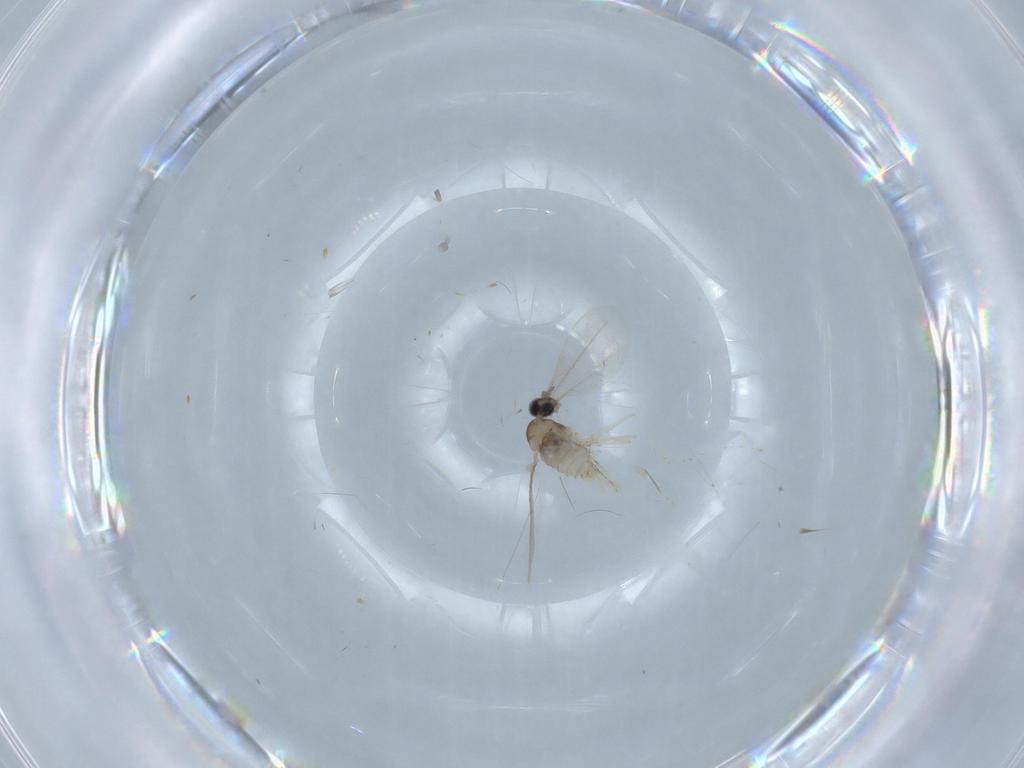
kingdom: Animalia
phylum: Arthropoda
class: Insecta
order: Diptera
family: Cecidomyiidae
